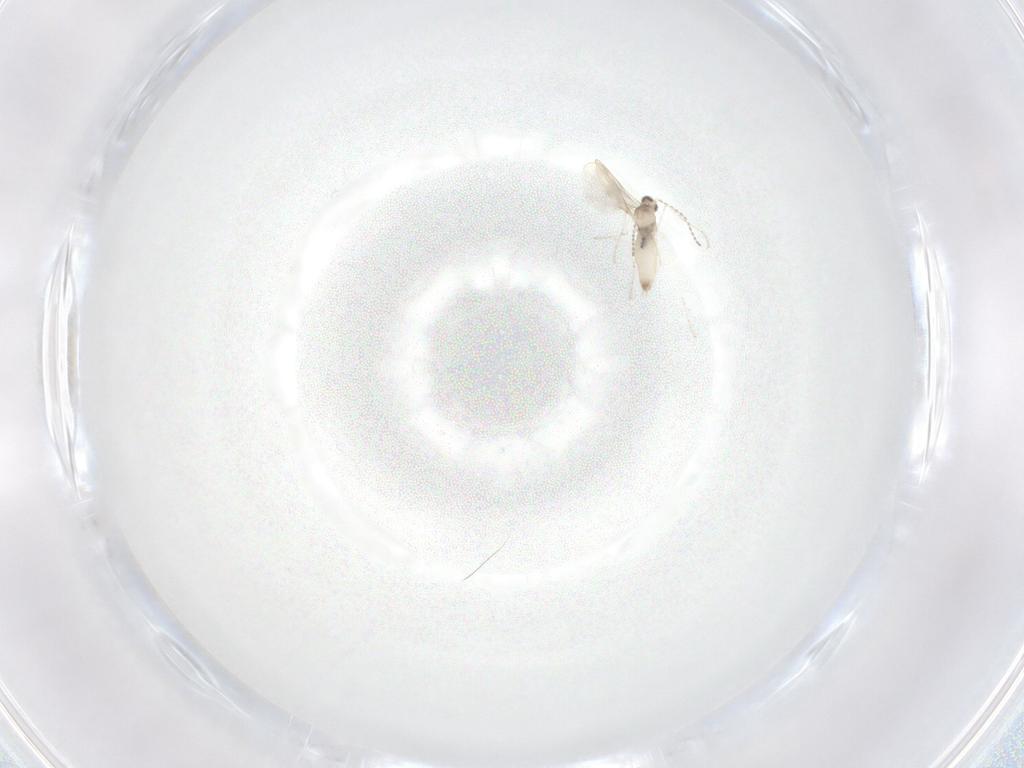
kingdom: Animalia
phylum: Arthropoda
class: Insecta
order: Diptera
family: Cecidomyiidae
